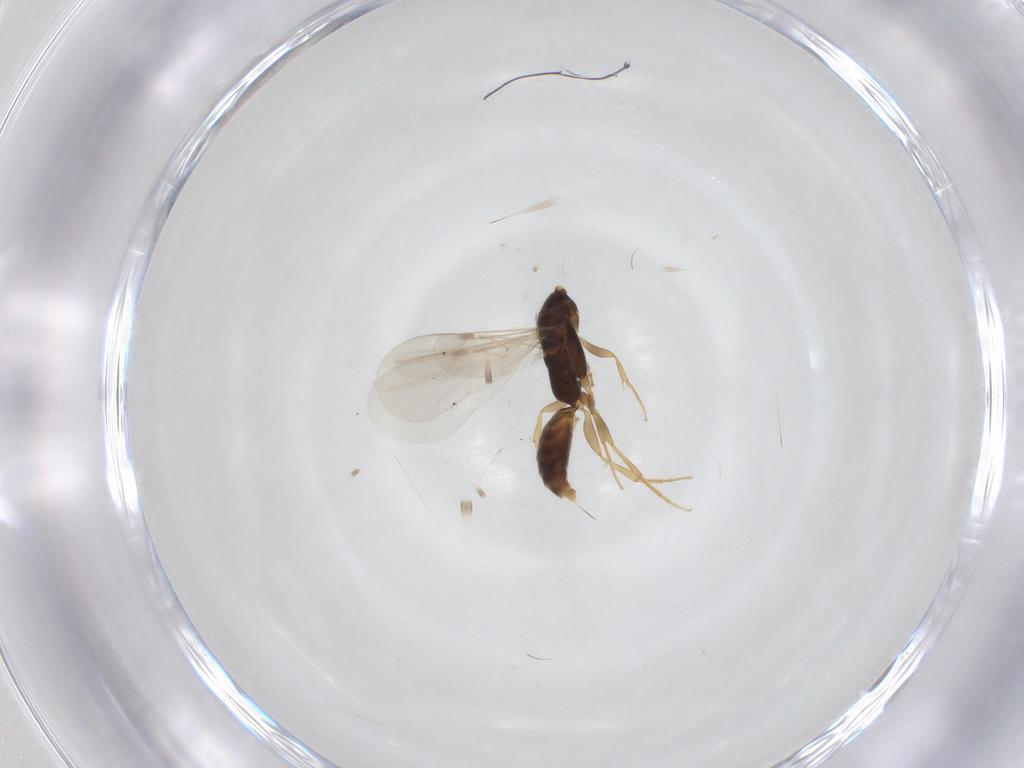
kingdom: Animalia
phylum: Arthropoda
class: Insecta
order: Hymenoptera
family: Bethylidae
